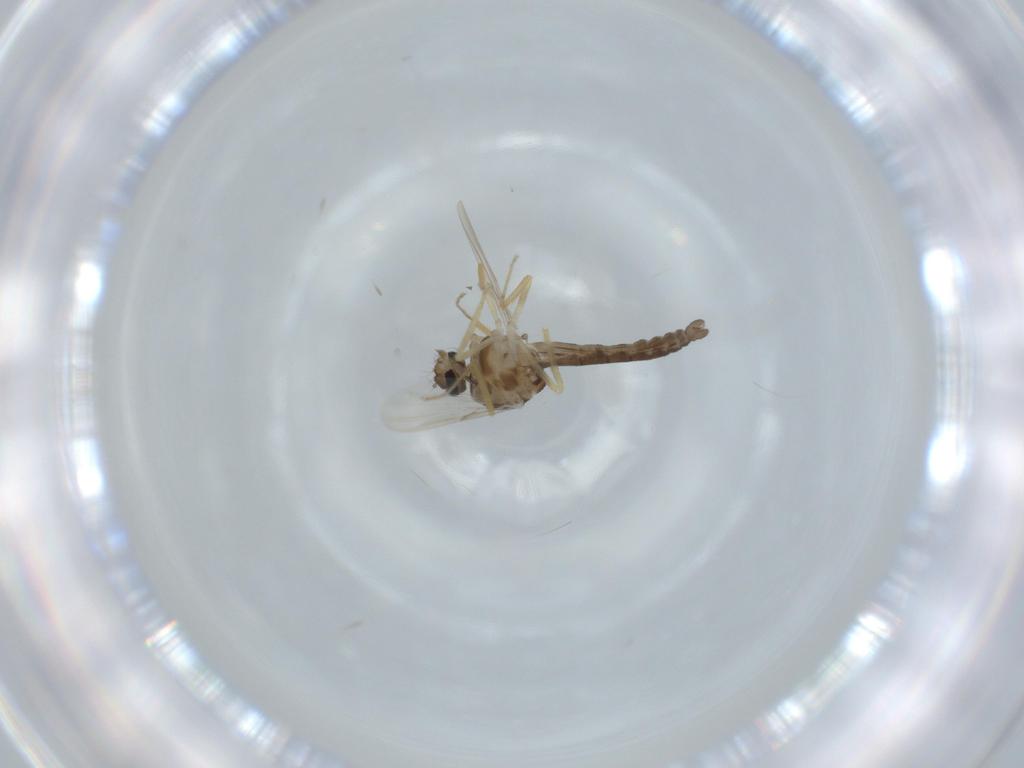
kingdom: Animalia
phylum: Arthropoda
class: Insecta
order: Diptera
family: Ceratopogonidae
